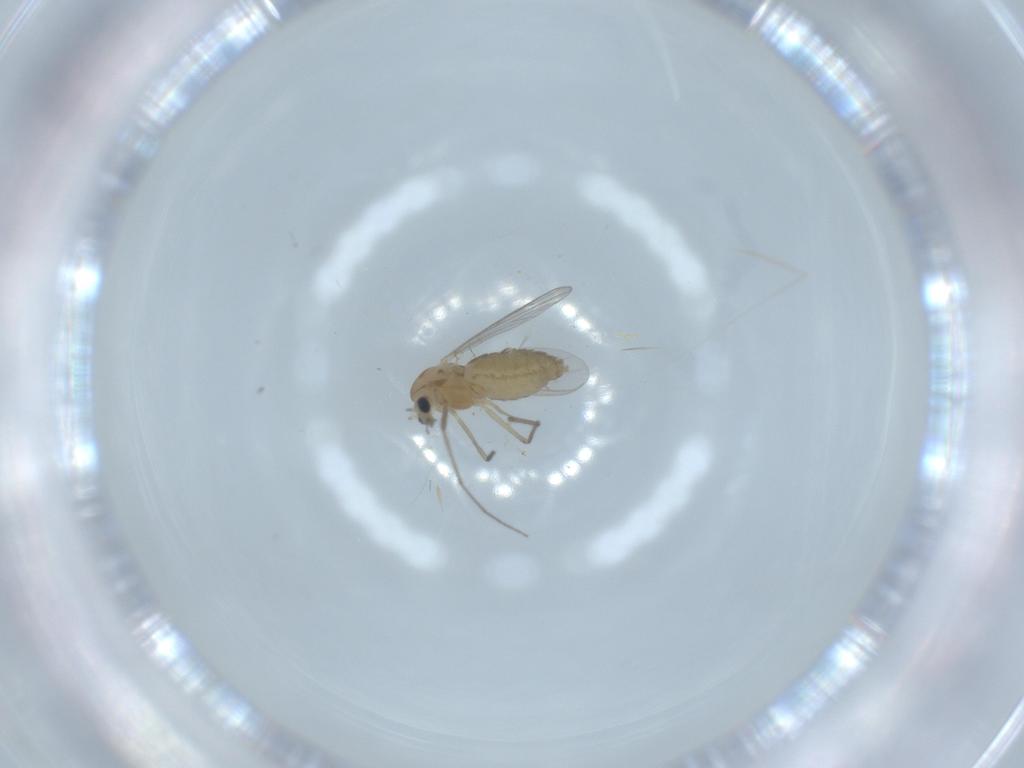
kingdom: Animalia
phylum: Arthropoda
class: Insecta
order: Diptera
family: Chironomidae
